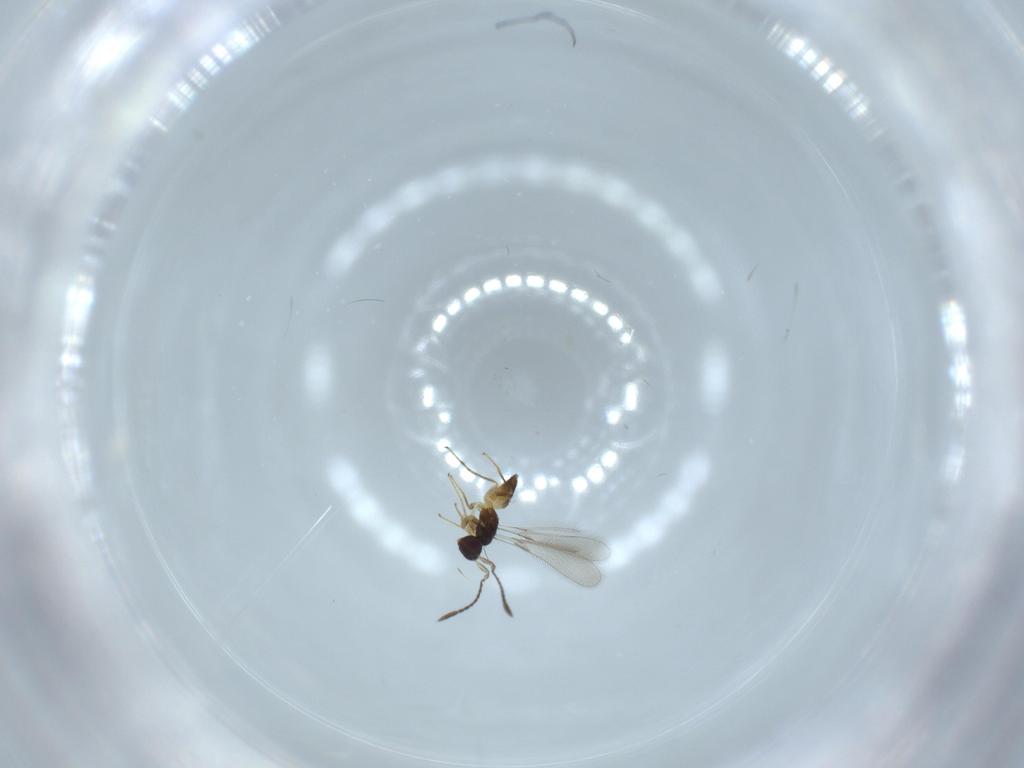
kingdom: Animalia
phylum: Arthropoda
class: Insecta
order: Hymenoptera
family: Mymaridae
